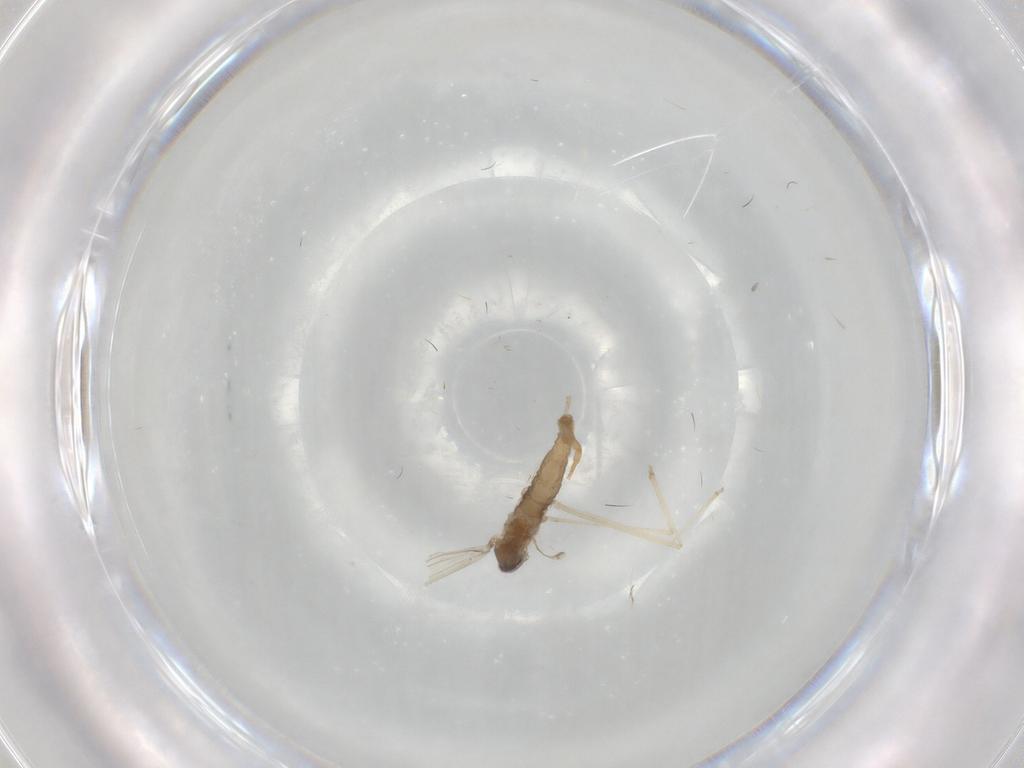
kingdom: Animalia
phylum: Arthropoda
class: Insecta
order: Diptera
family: Cecidomyiidae
